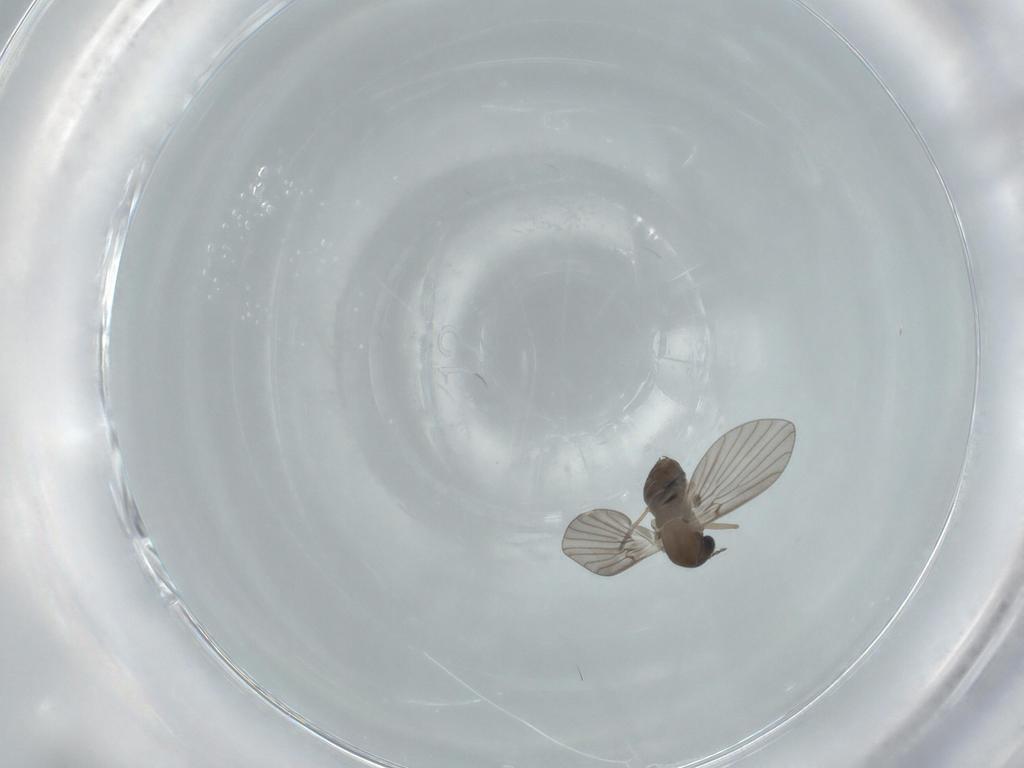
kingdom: Animalia
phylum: Arthropoda
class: Insecta
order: Diptera
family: Psychodidae
